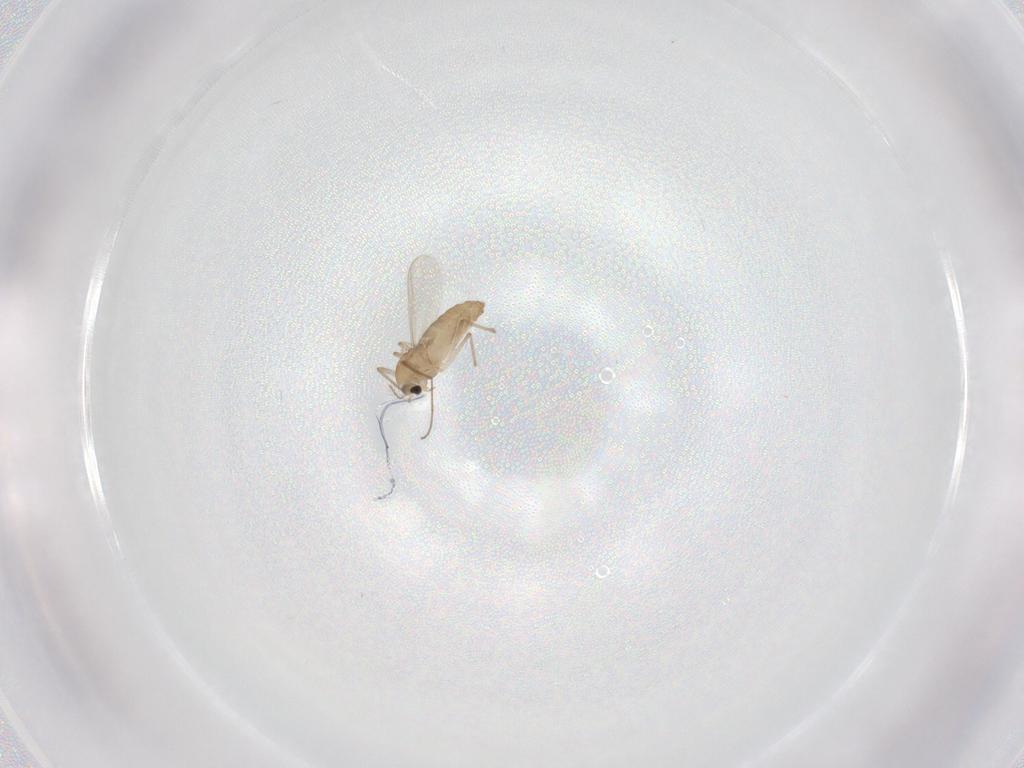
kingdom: Animalia
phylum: Arthropoda
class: Insecta
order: Diptera
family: Chironomidae
